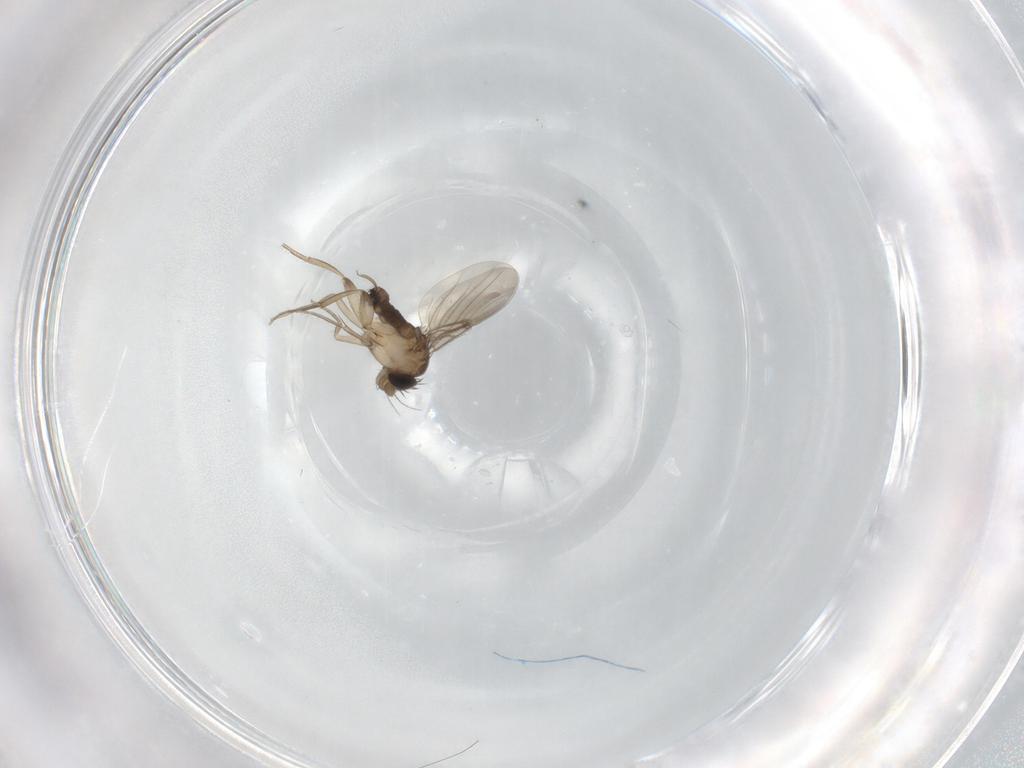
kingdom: Animalia
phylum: Arthropoda
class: Insecta
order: Diptera
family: Phoridae
